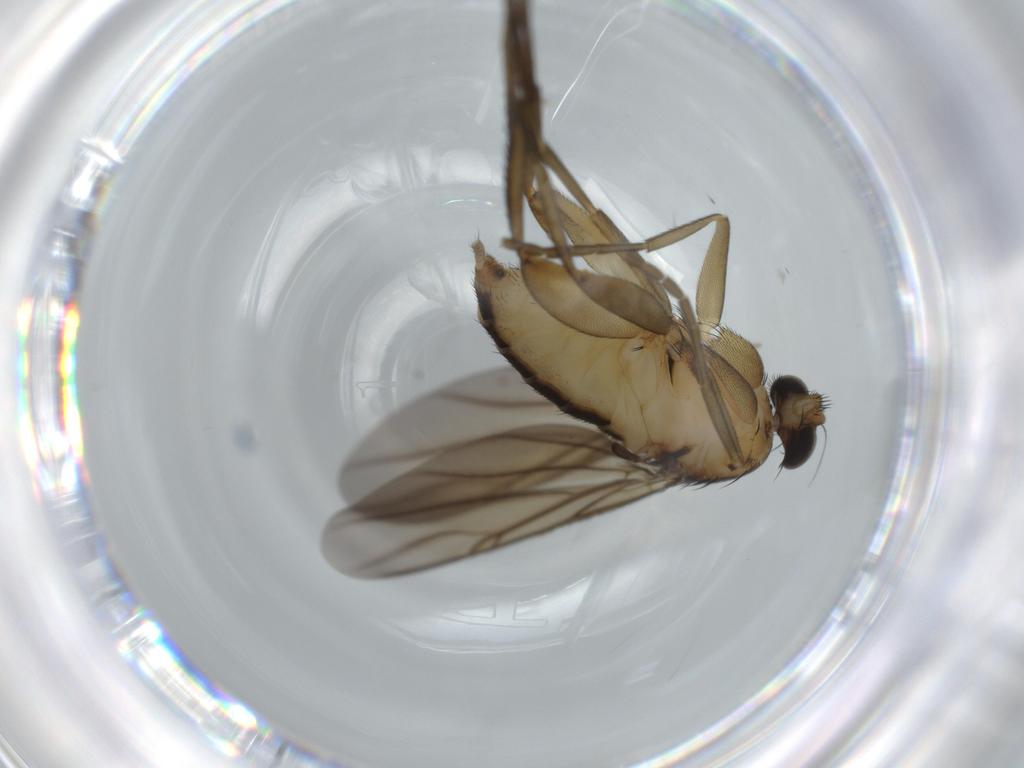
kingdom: Animalia
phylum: Arthropoda
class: Insecta
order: Diptera
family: Phoridae
